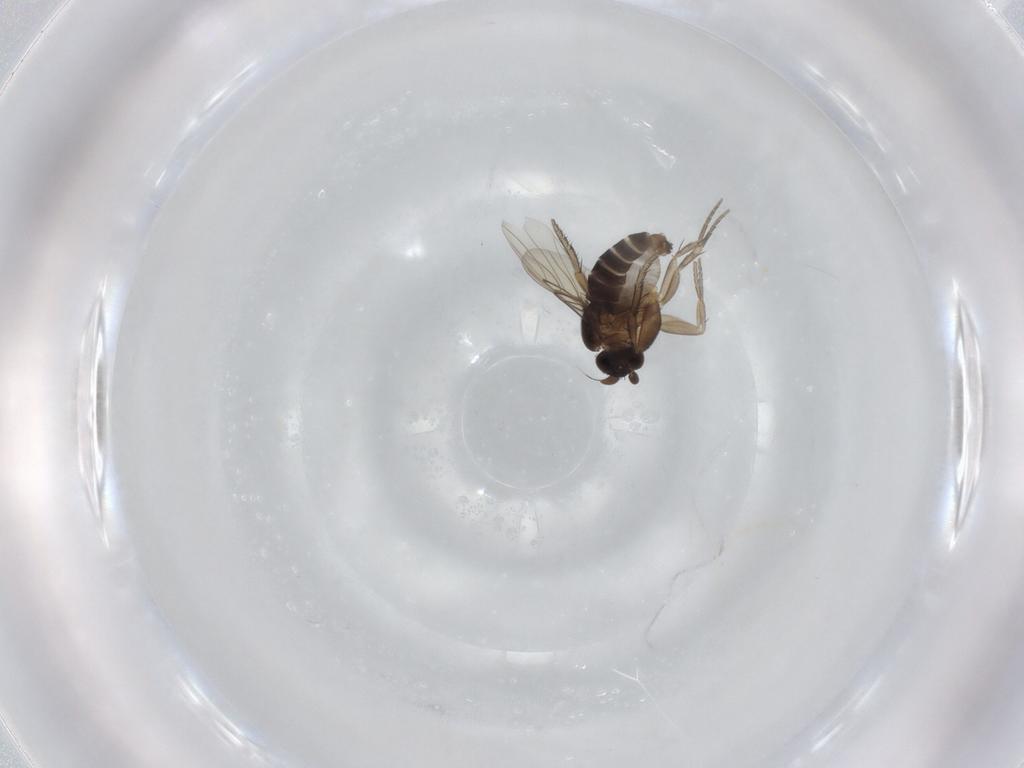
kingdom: Animalia
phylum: Arthropoda
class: Insecta
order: Diptera
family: Phoridae
